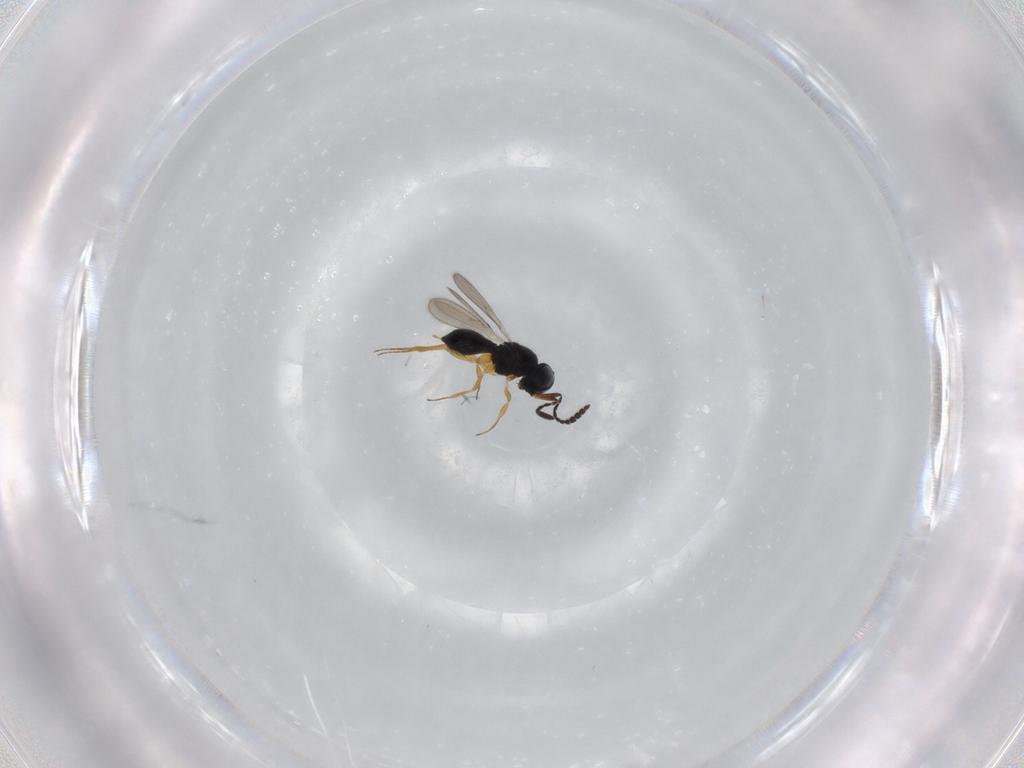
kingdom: Animalia
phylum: Arthropoda
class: Insecta
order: Hymenoptera
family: Scelionidae
